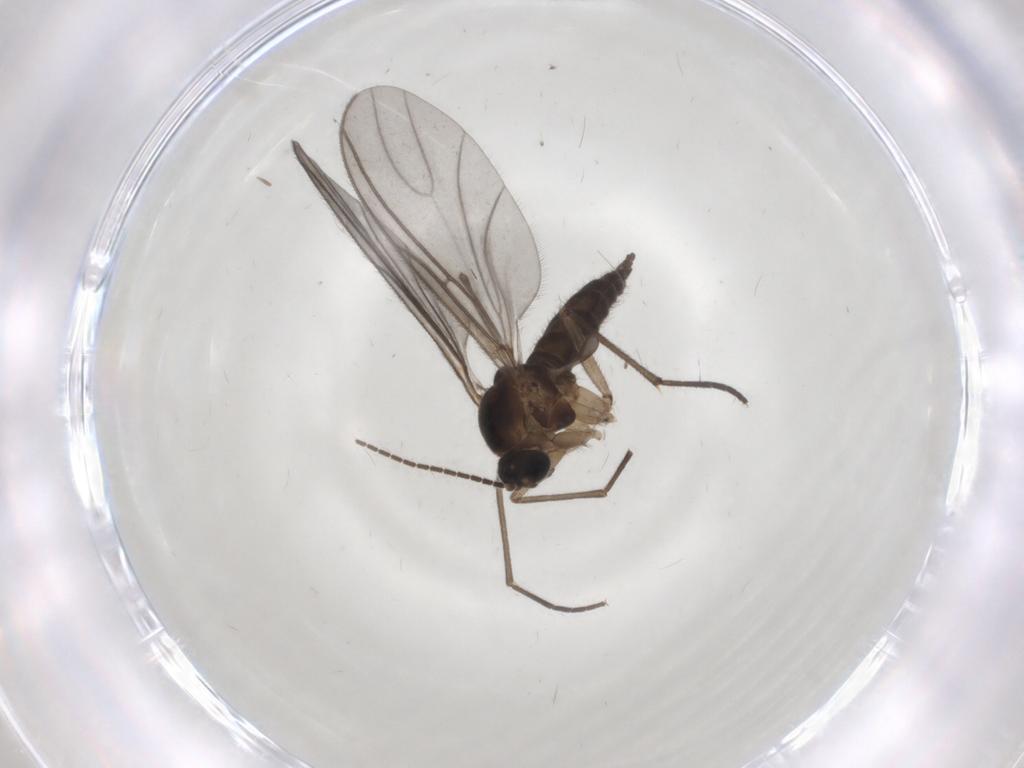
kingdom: Animalia
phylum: Arthropoda
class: Insecta
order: Diptera
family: Sciaridae
